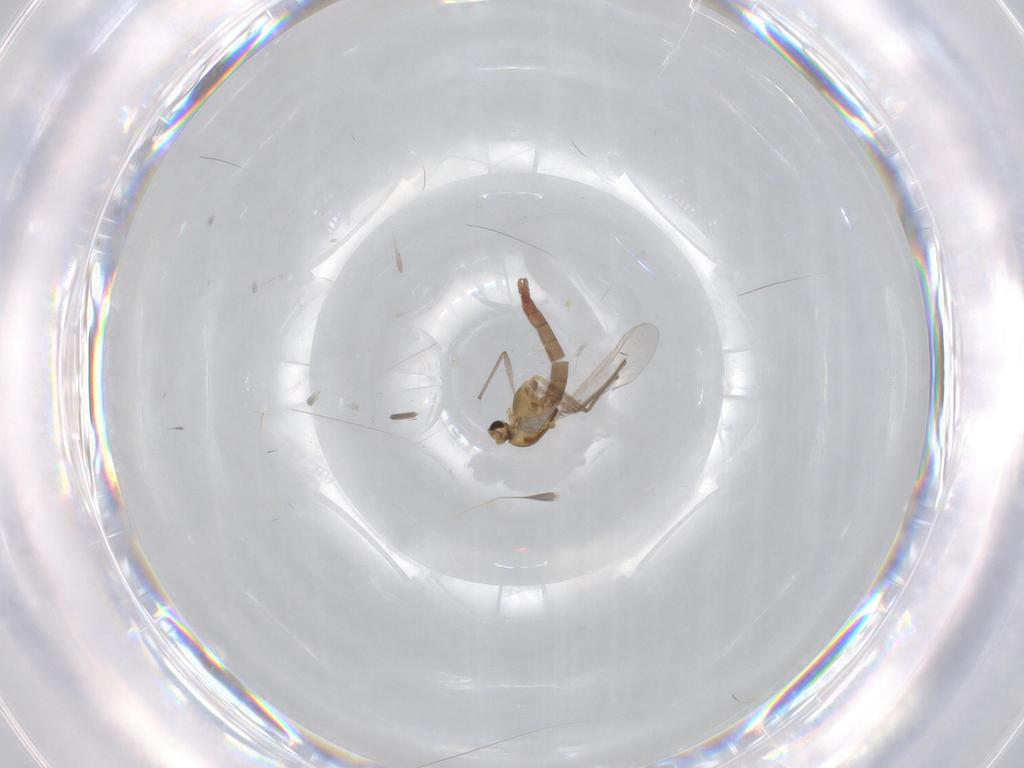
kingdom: Animalia
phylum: Arthropoda
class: Insecta
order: Diptera
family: Chironomidae
